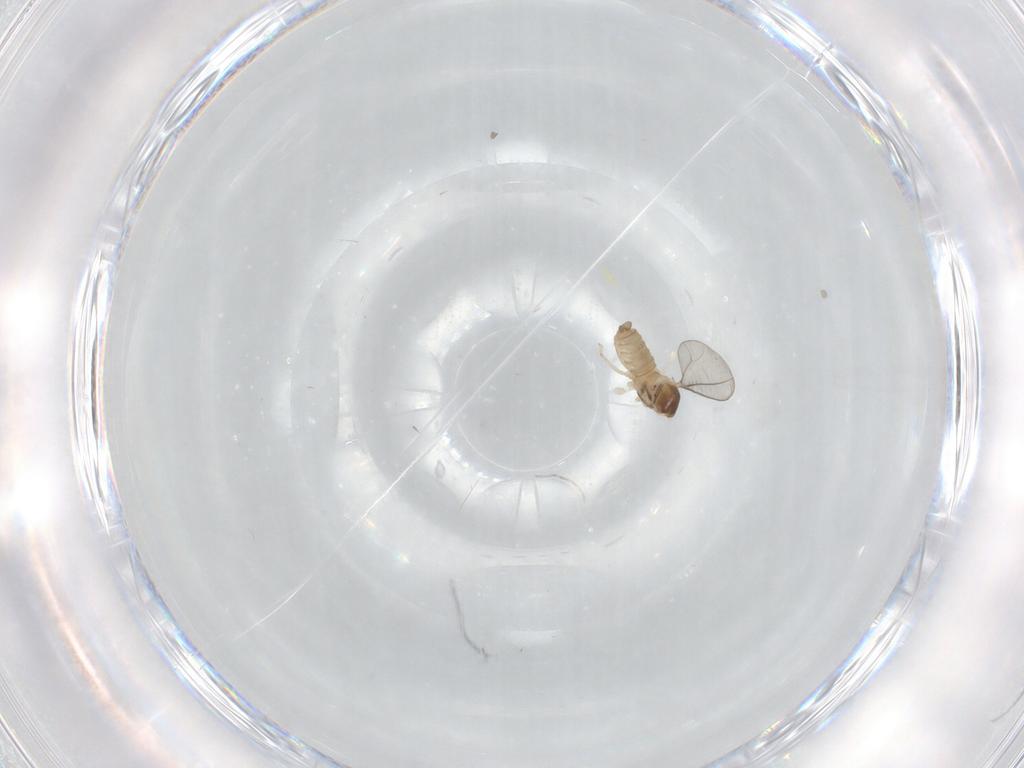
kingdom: Animalia
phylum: Arthropoda
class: Insecta
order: Diptera
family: Cecidomyiidae
